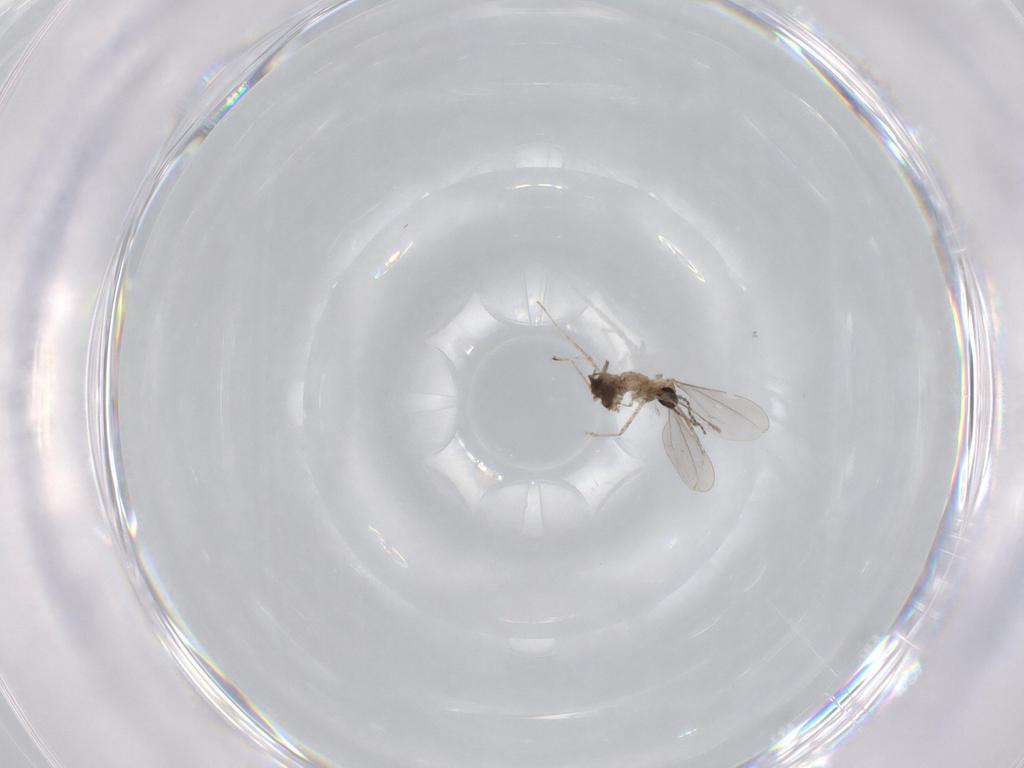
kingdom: Animalia
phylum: Arthropoda
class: Insecta
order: Diptera
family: Cecidomyiidae
